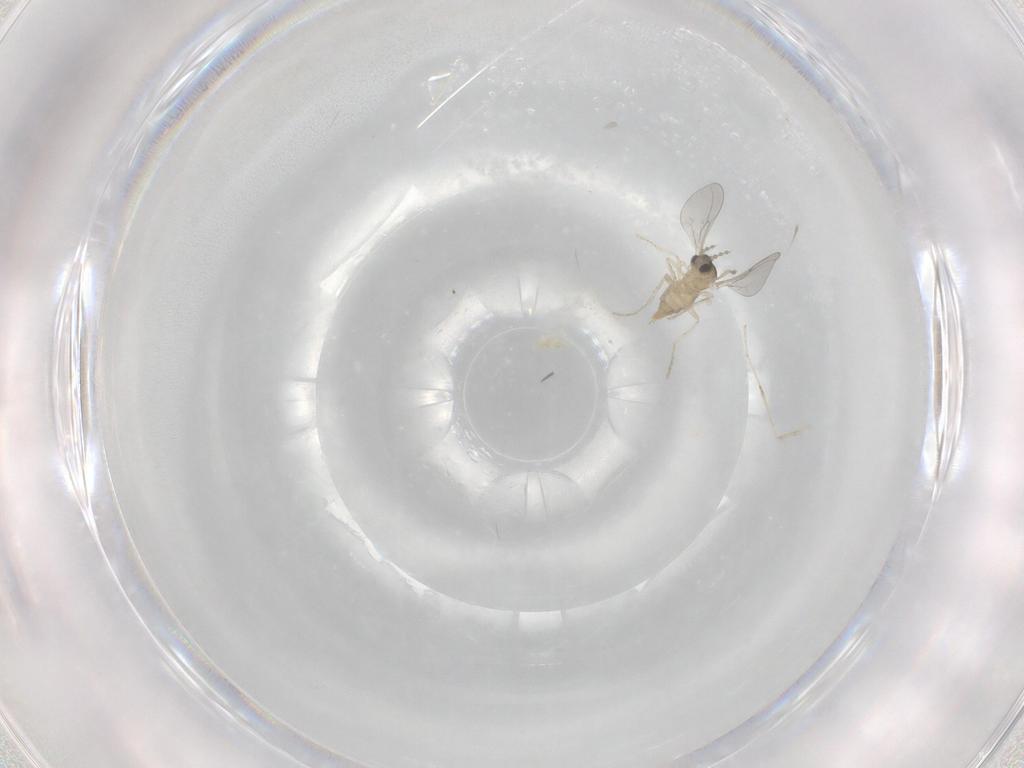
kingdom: Animalia
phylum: Arthropoda
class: Insecta
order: Diptera
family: Cecidomyiidae
